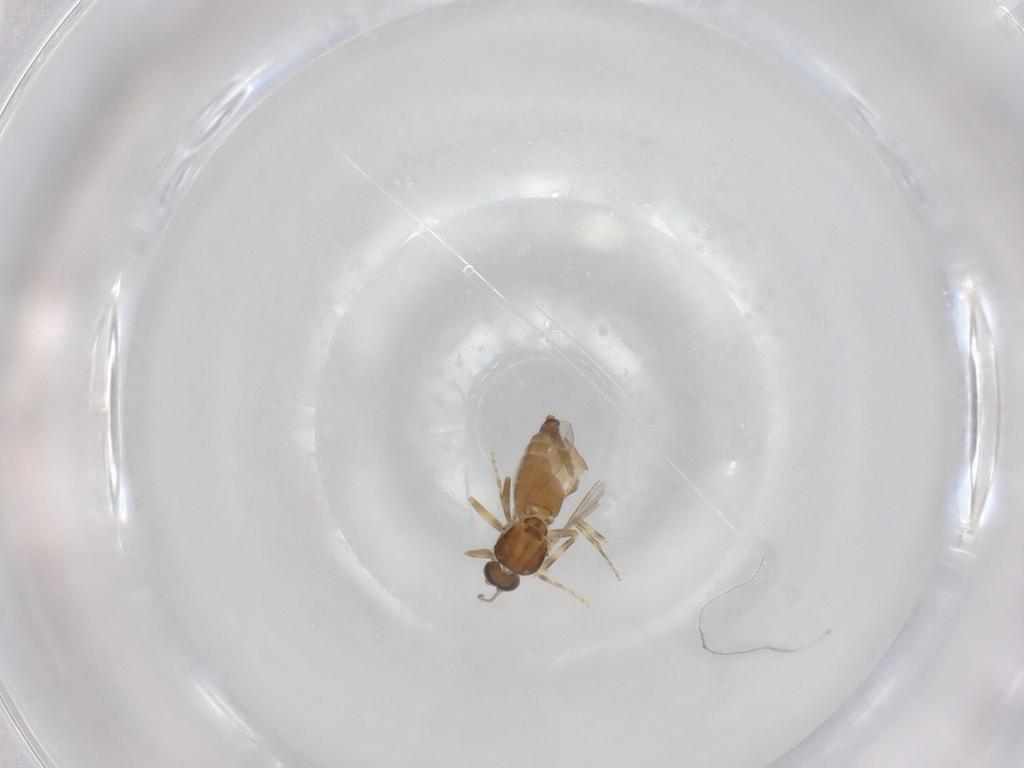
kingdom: Animalia
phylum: Arthropoda
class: Insecta
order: Diptera
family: Ceratopogonidae
